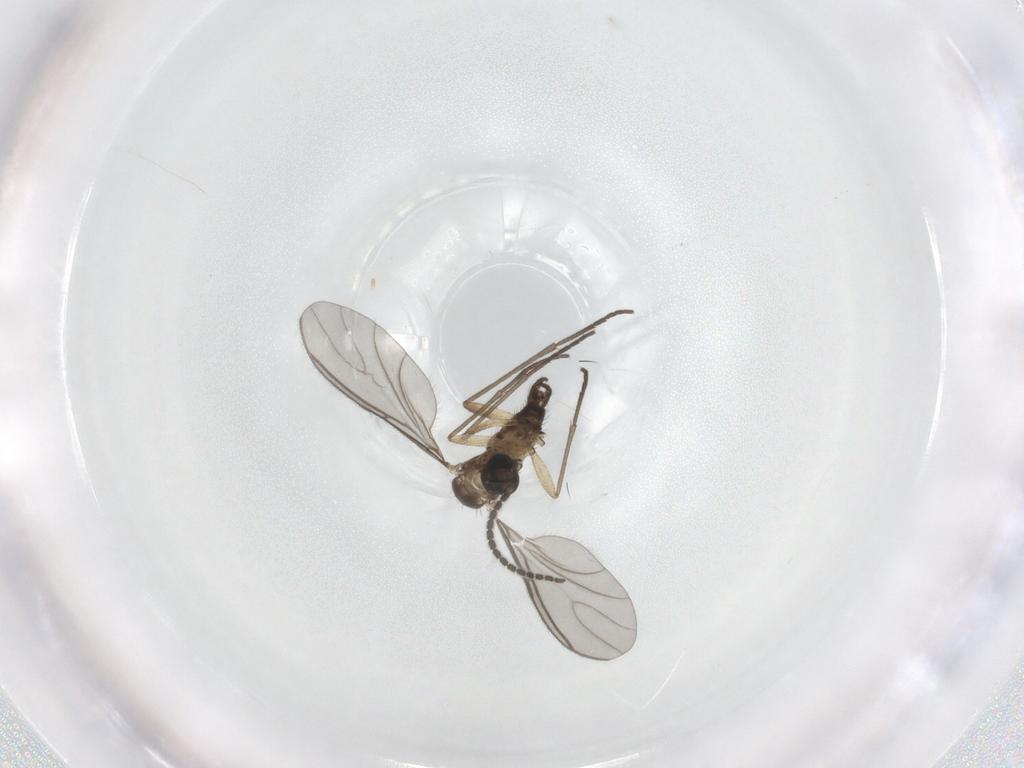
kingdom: Animalia
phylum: Arthropoda
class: Insecta
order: Diptera
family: Sciaridae
